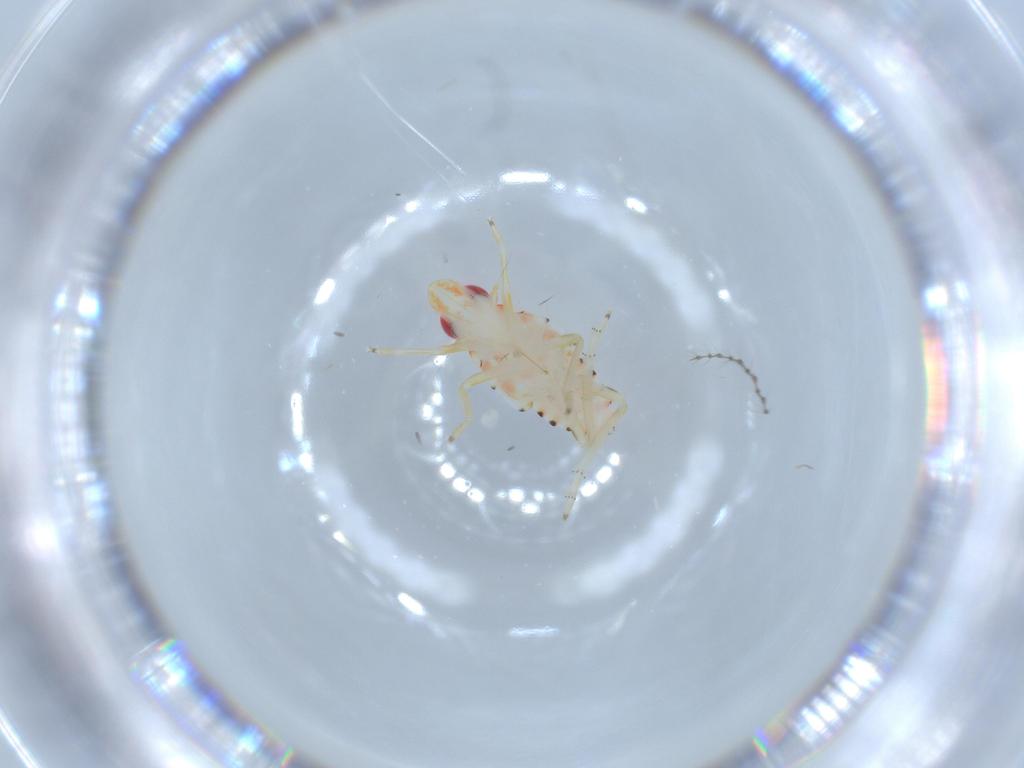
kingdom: Animalia
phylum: Arthropoda
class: Insecta
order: Hemiptera
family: Tropiduchidae
